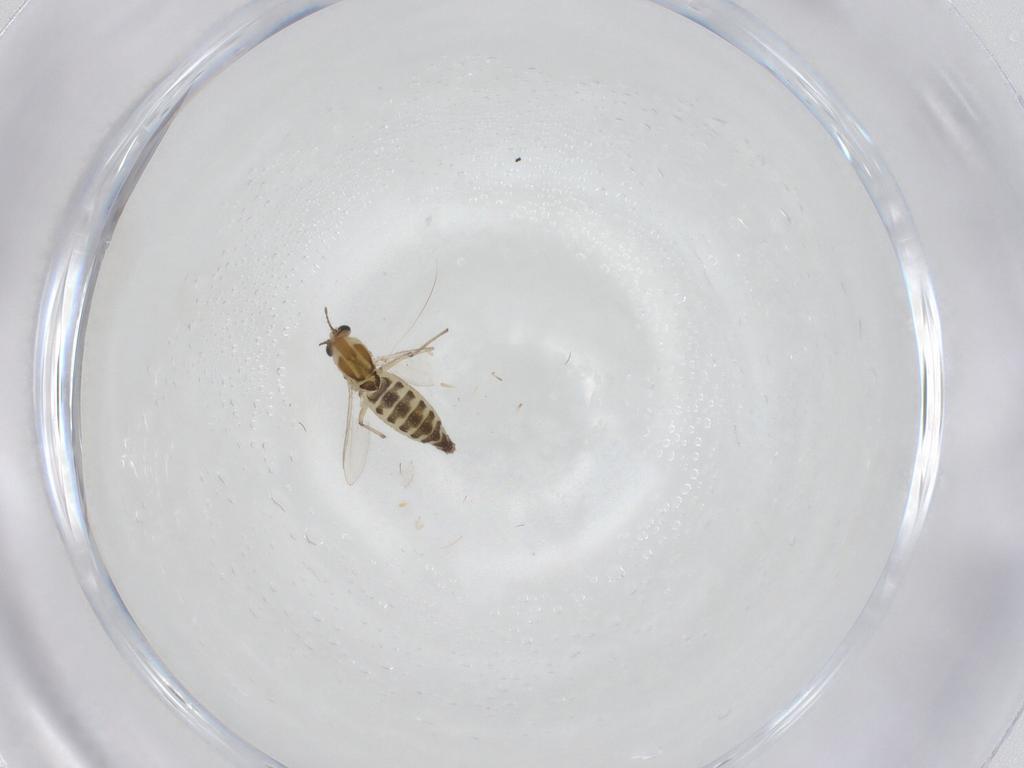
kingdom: Animalia
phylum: Arthropoda
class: Insecta
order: Diptera
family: Chironomidae
